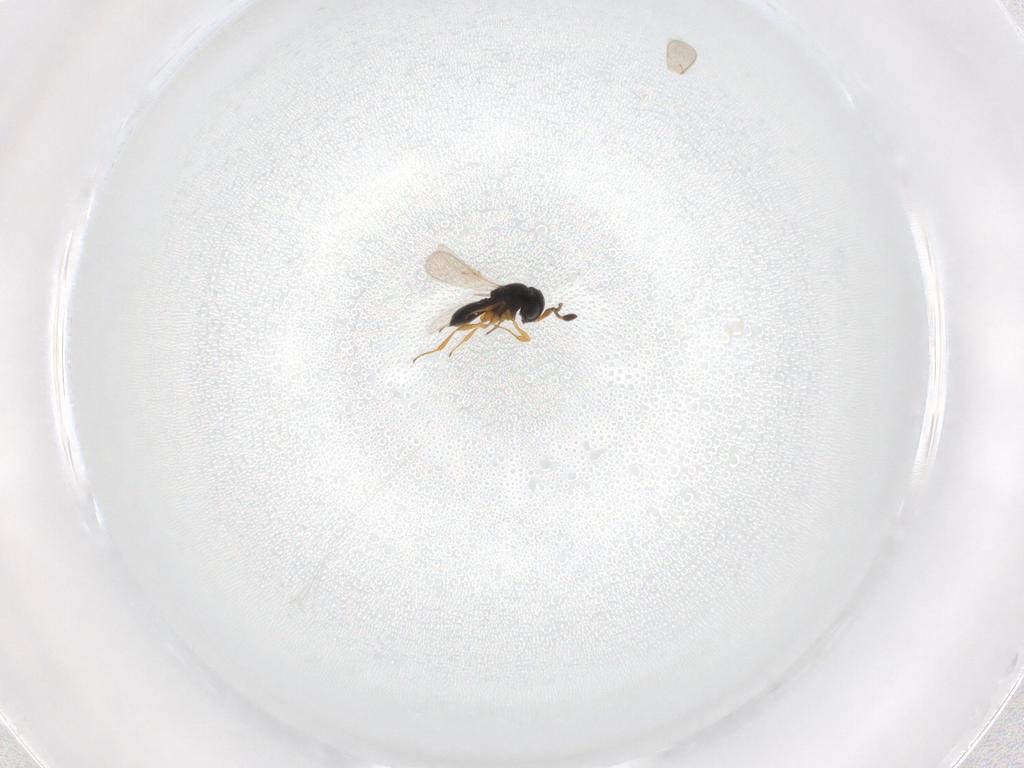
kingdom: Animalia
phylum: Arthropoda
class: Insecta
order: Hymenoptera
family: Scelionidae
